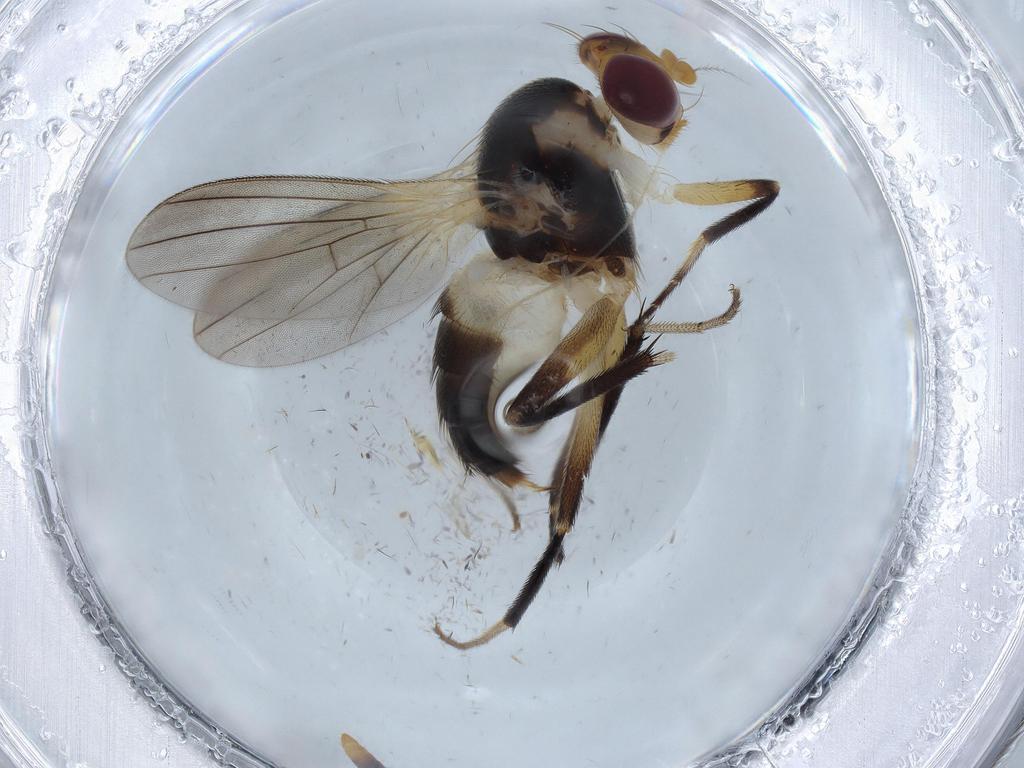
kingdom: Animalia
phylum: Arthropoda
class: Insecta
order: Diptera
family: Clusiidae
